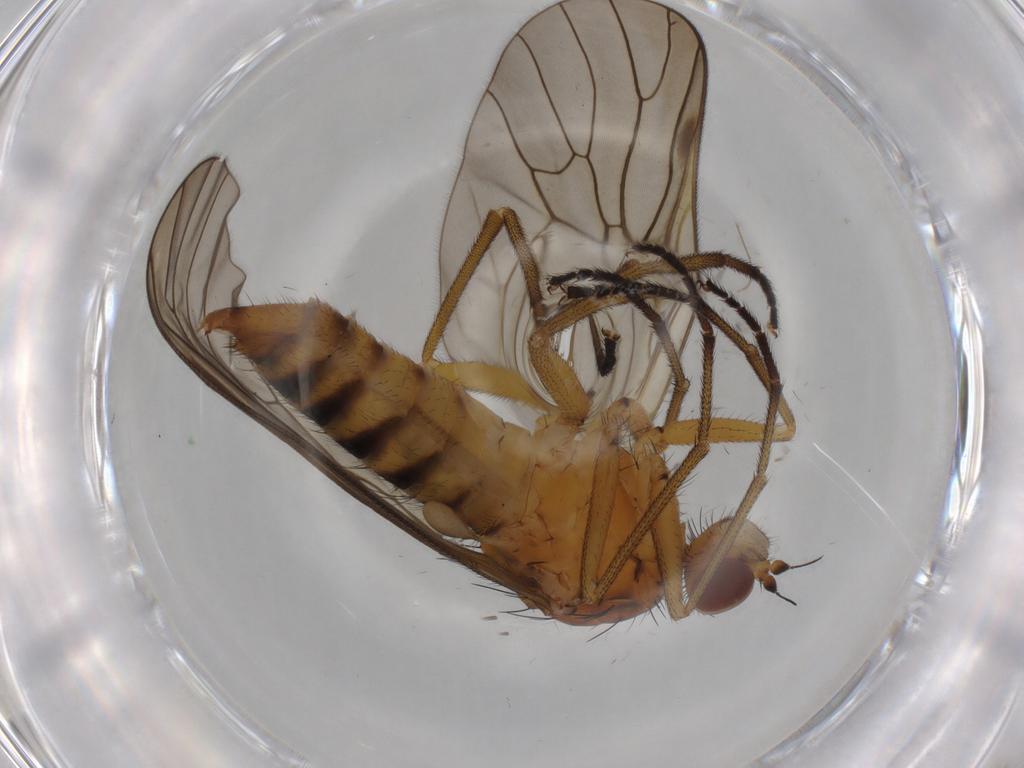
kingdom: Animalia
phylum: Arthropoda
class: Insecta
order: Diptera
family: Brachystomatidae
